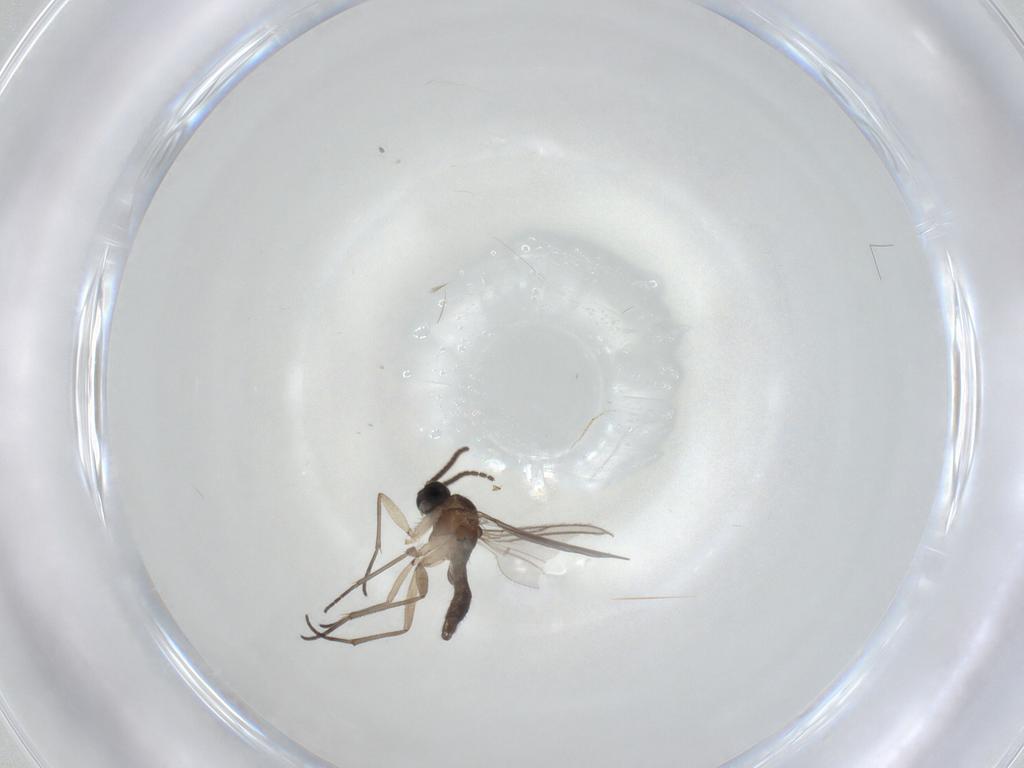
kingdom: Animalia
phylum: Arthropoda
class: Insecta
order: Diptera
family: Sciaridae
